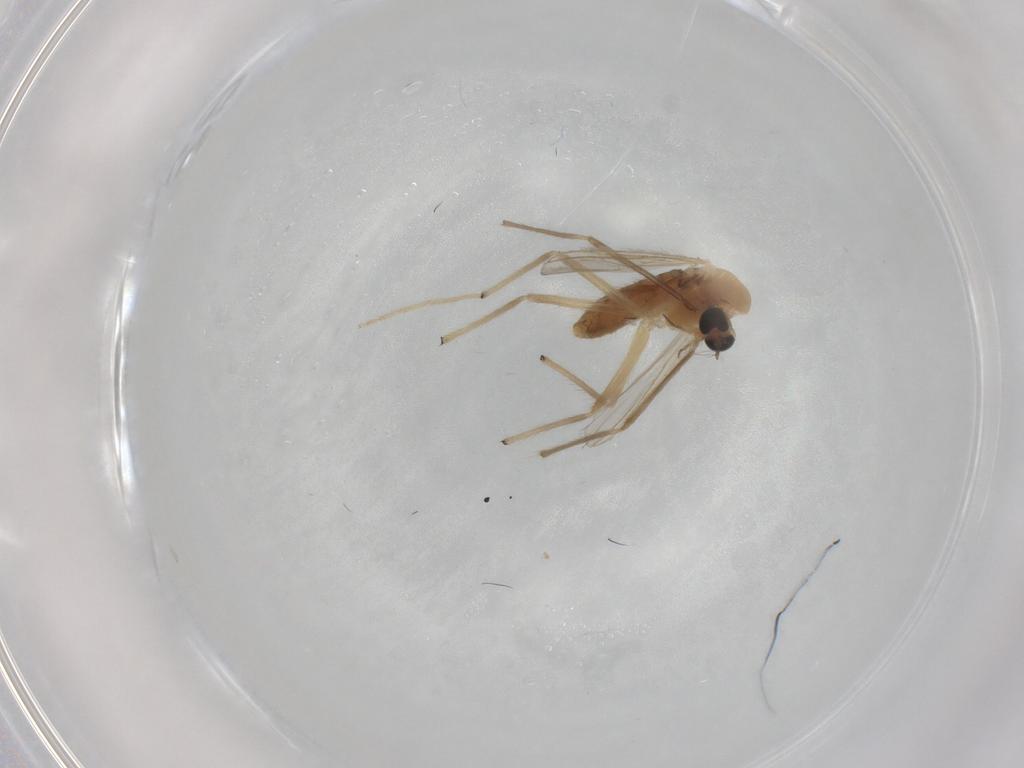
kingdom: Animalia
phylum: Arthropoda
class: Insecta
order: Diptera
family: Chironomidae
